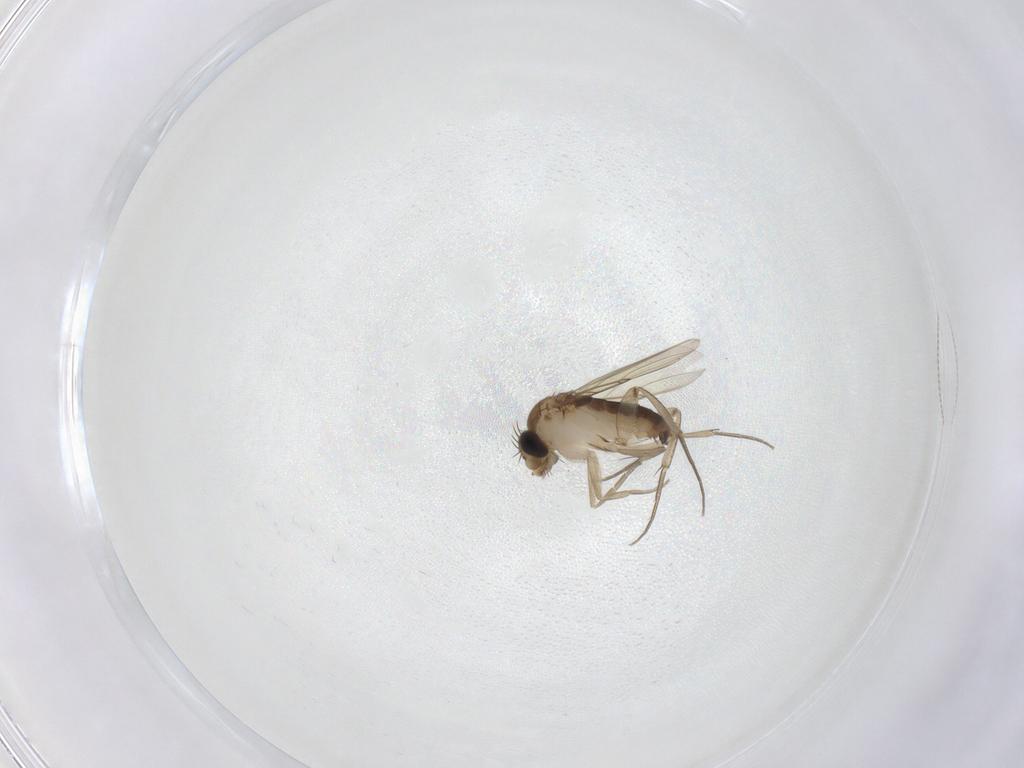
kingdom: Animalia
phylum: Arthropoda
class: Insecta
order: Diptera
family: Cecidomyiidae
